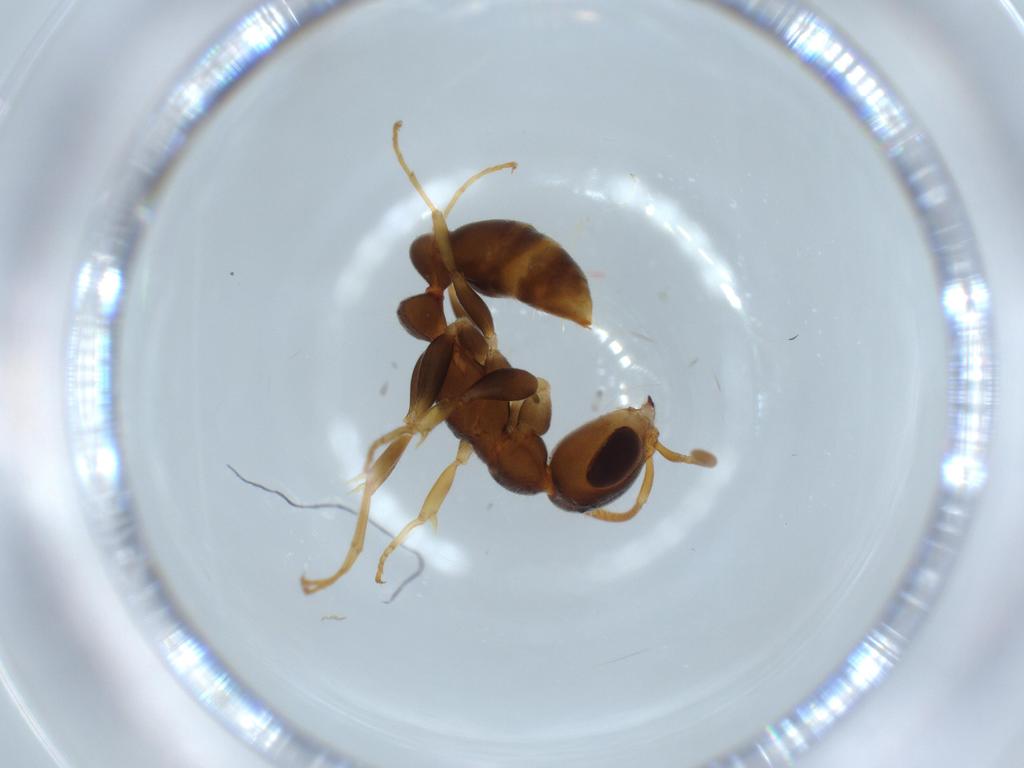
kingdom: Animalia
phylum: Arthropoda
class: Insecta
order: Hymenoptera
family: Formicidae
